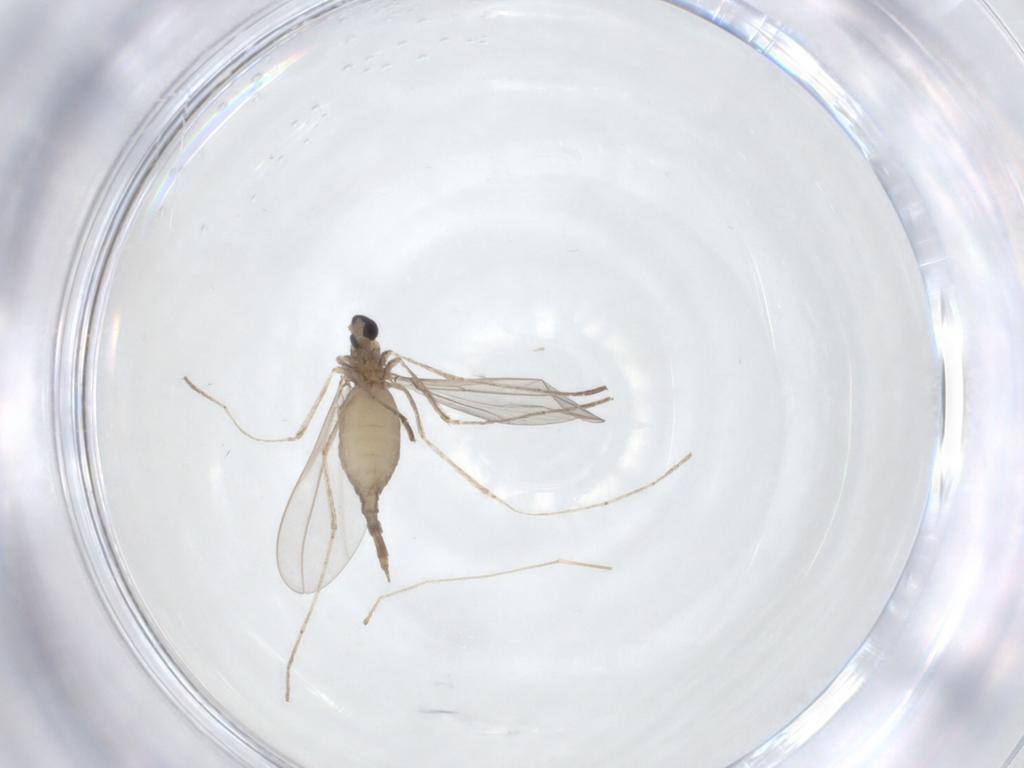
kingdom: Animalia
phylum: Arthropoda
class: Insecta
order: Diptera
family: Cecidomyiidae
